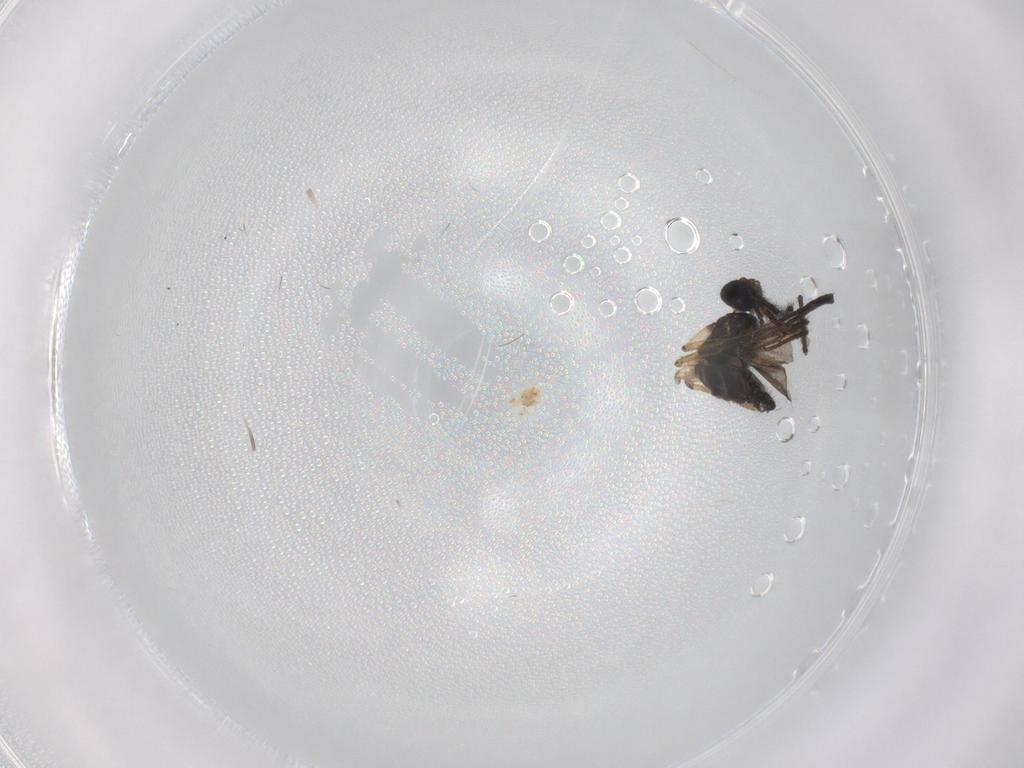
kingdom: Animalia
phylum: Arthropoda
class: Insecta
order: Diptera
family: Sciaridae
